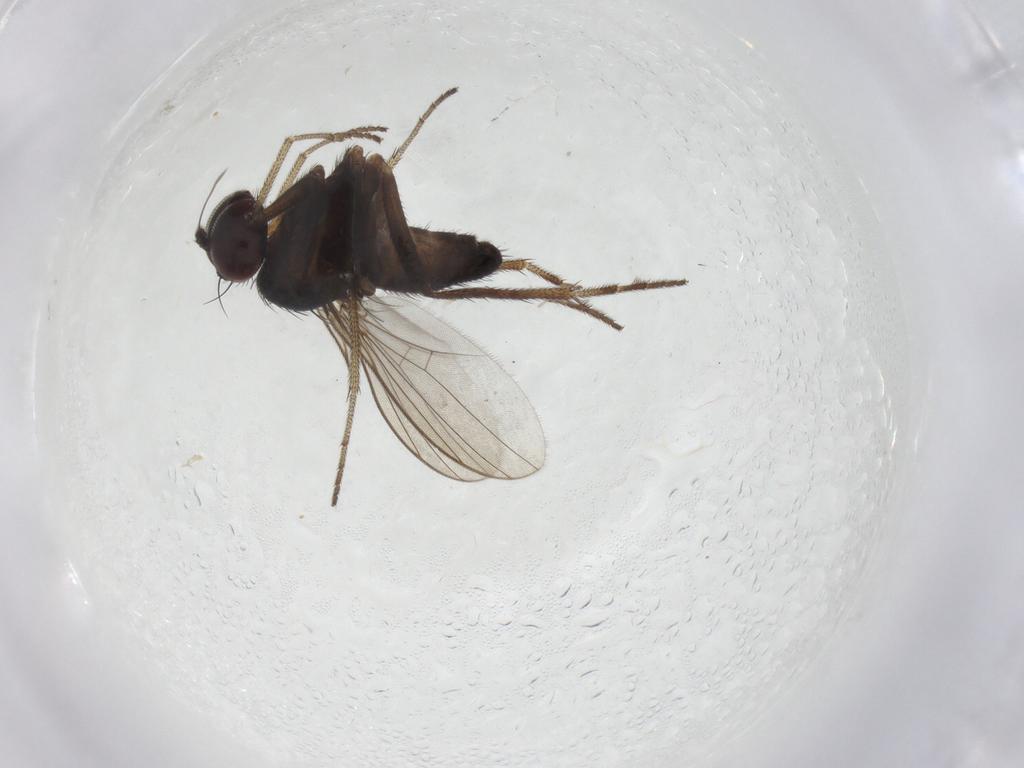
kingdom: Animalia
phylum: Arthropoda
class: Insecta
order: Diptera
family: Dolichopodidae
